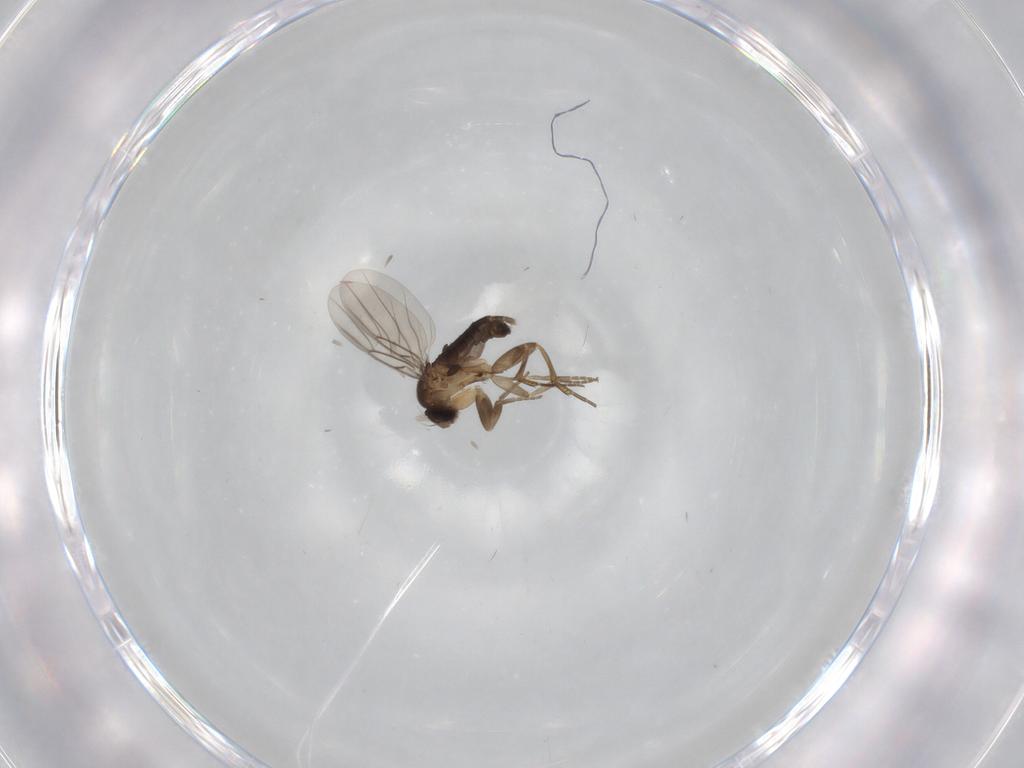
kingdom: Animalia
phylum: Arthropoda
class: Insecta
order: Diptera
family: Phoridae
